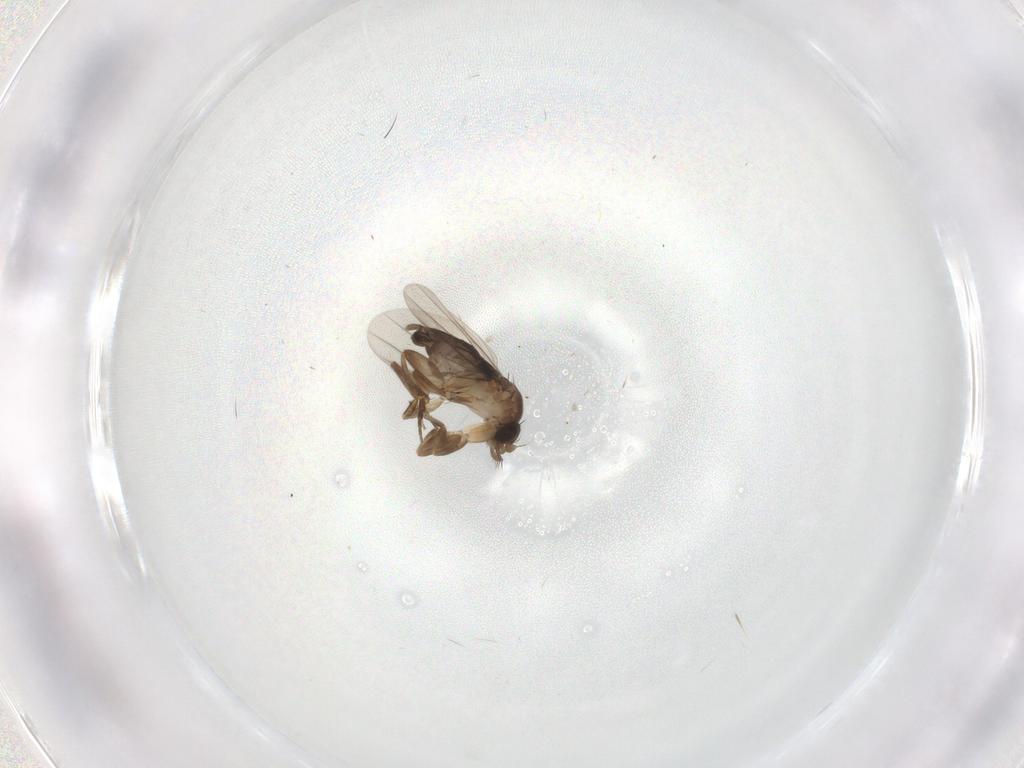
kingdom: Animalia
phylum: Arthropoda
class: Insecta
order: Diptera
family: Phoridae
